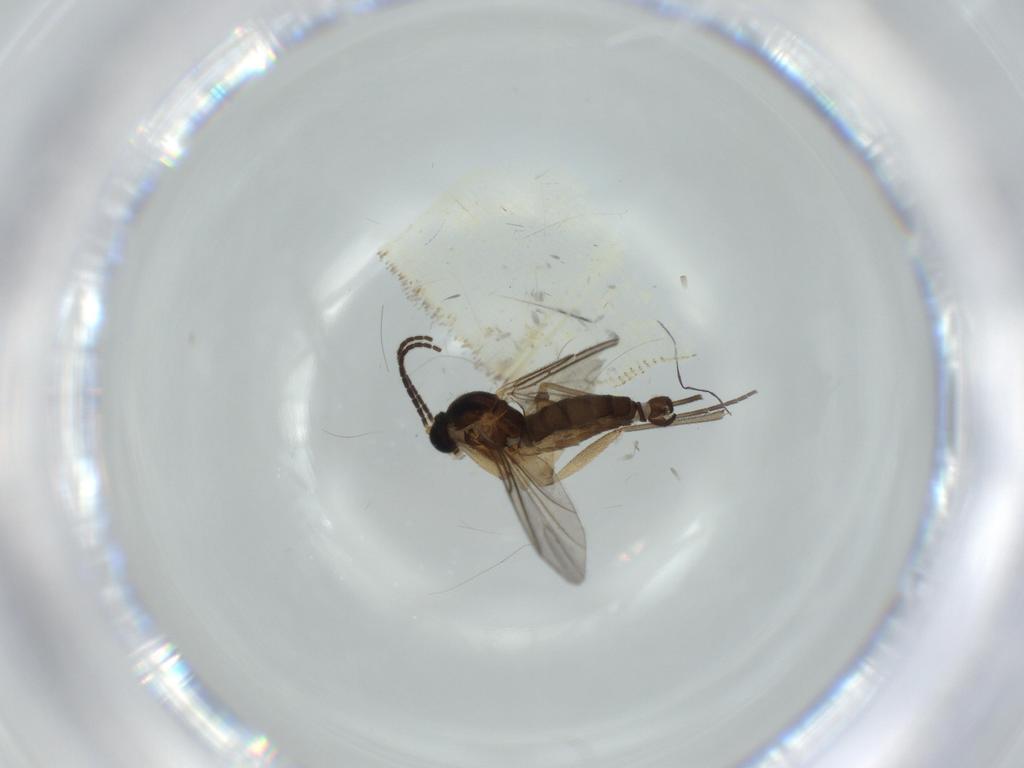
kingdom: Animalia
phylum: Arthropoda
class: Insecta
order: Diptera
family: Sciaridae
